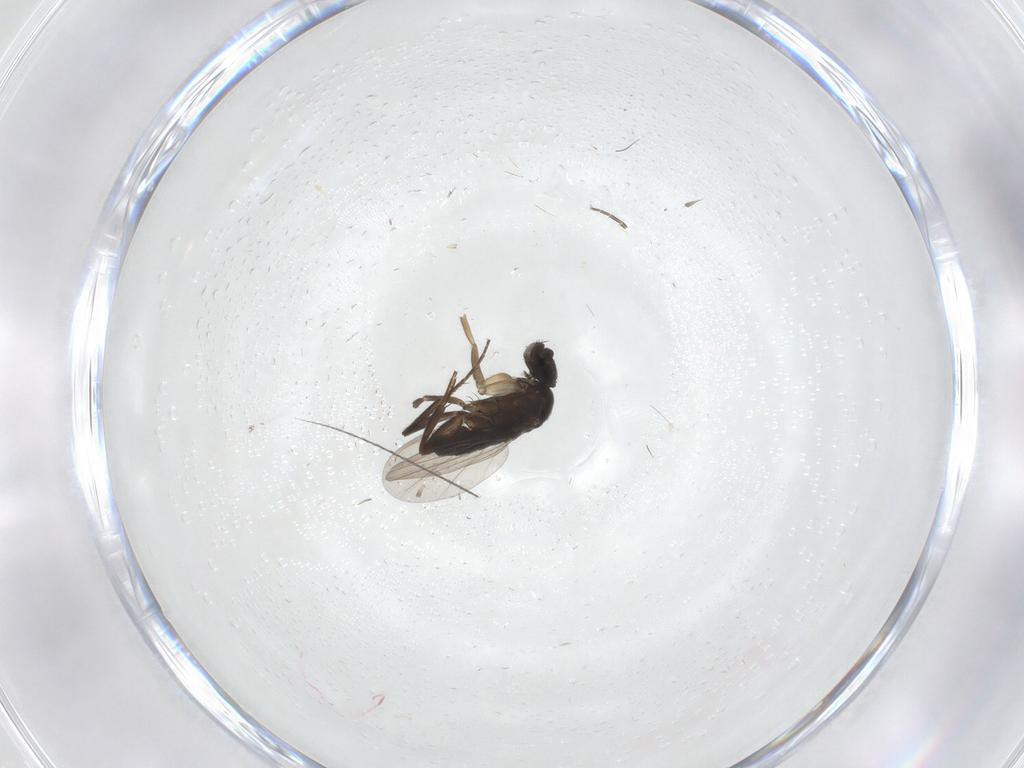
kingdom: Animalia
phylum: Arthropoda
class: Insecta
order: Diptera
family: Phoridae
